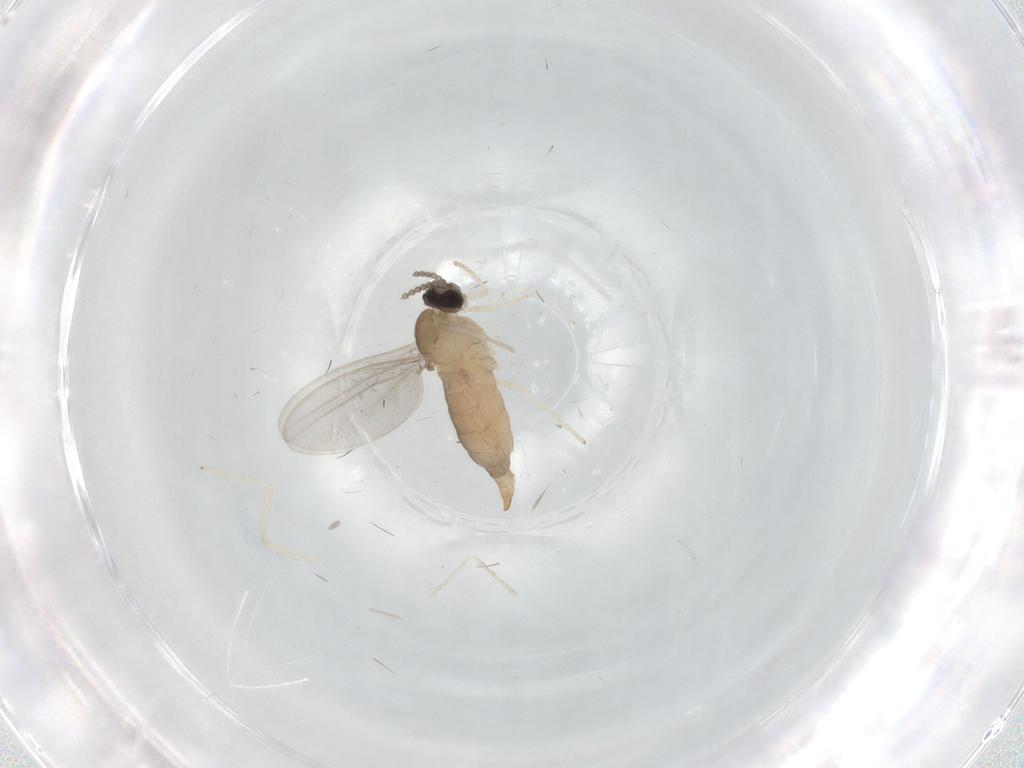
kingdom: Animalia
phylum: Arthropoda
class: Insecta
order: Diptera
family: Cecidomyiidae
